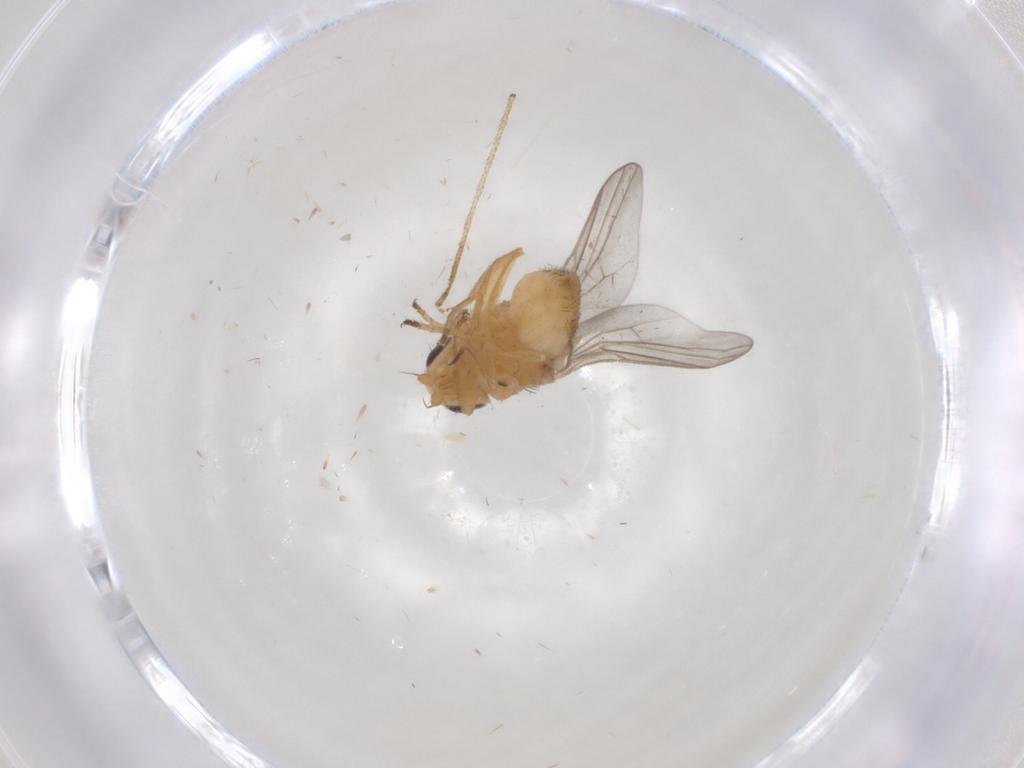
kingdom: Animalia
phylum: Arthropoda
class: Insecta
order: Diptera
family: Chloropidae
